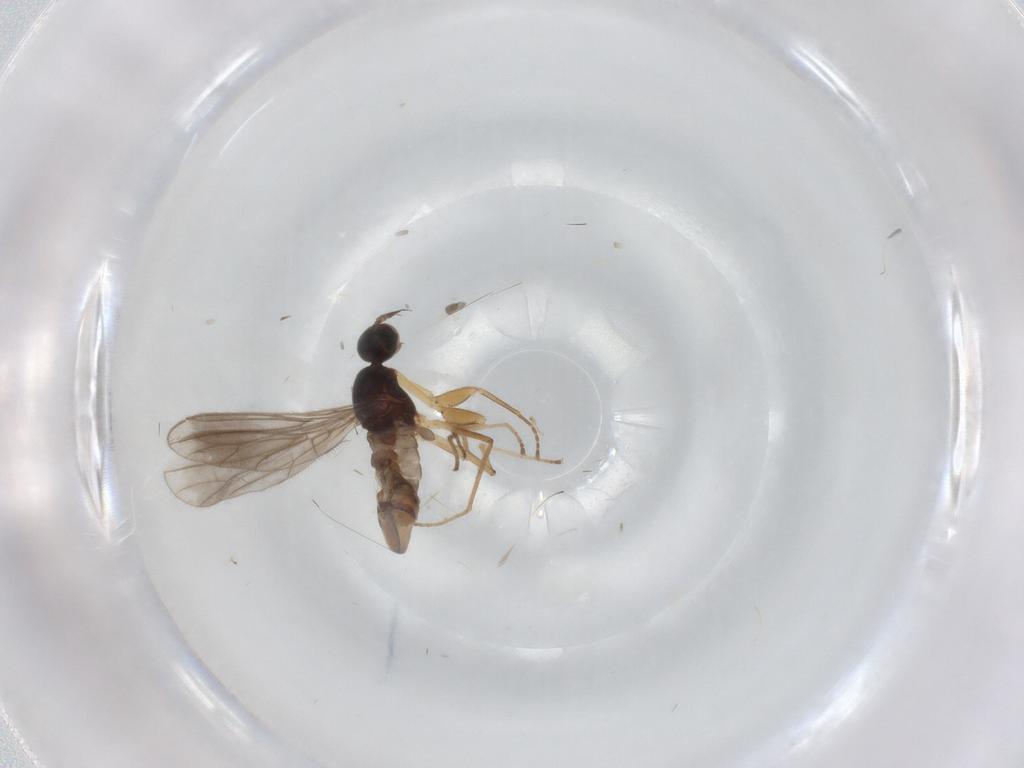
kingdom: Animalia
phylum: Arthropoda
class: Insecta
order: Diptera
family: Empididae
